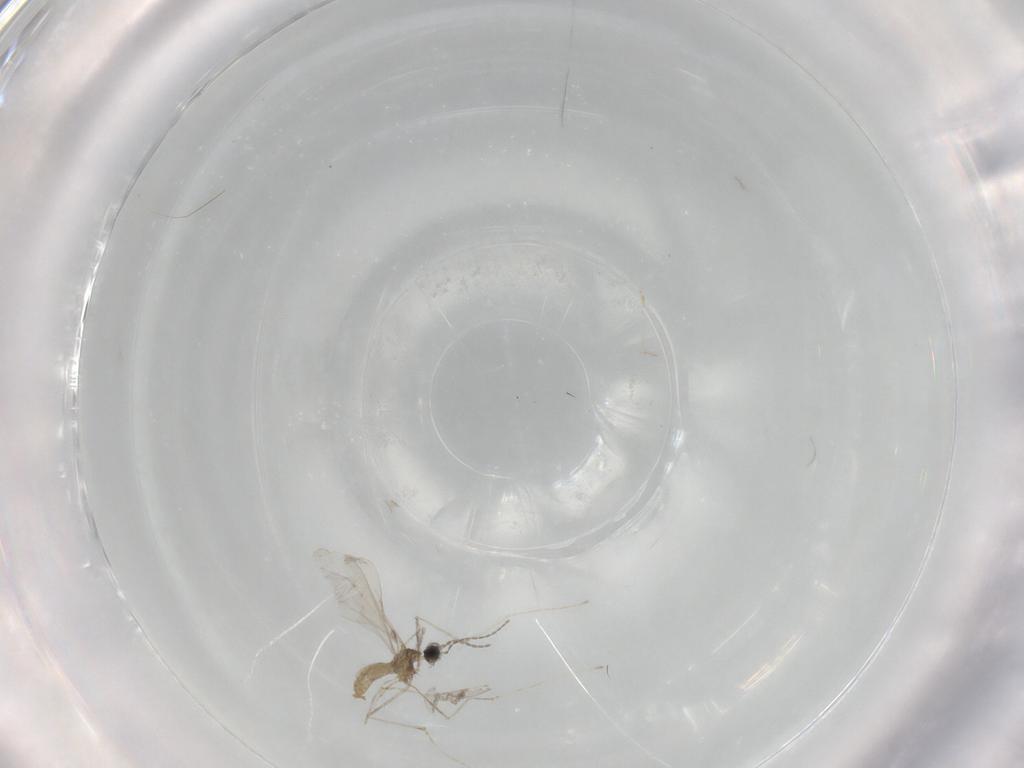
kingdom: Animalia
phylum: Arthropoda
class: Insecta
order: Diptera
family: Cecidomyiidae
